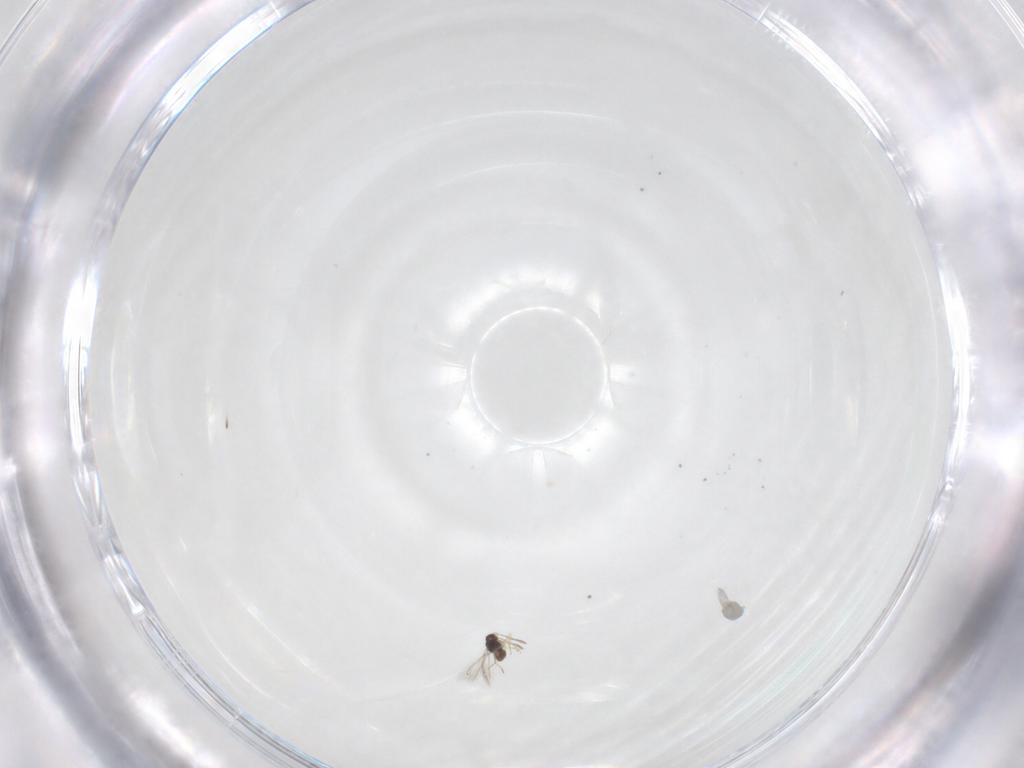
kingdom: Animalia
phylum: Arthropoda
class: Insecta
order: Hymenoptera
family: Mymaridae
